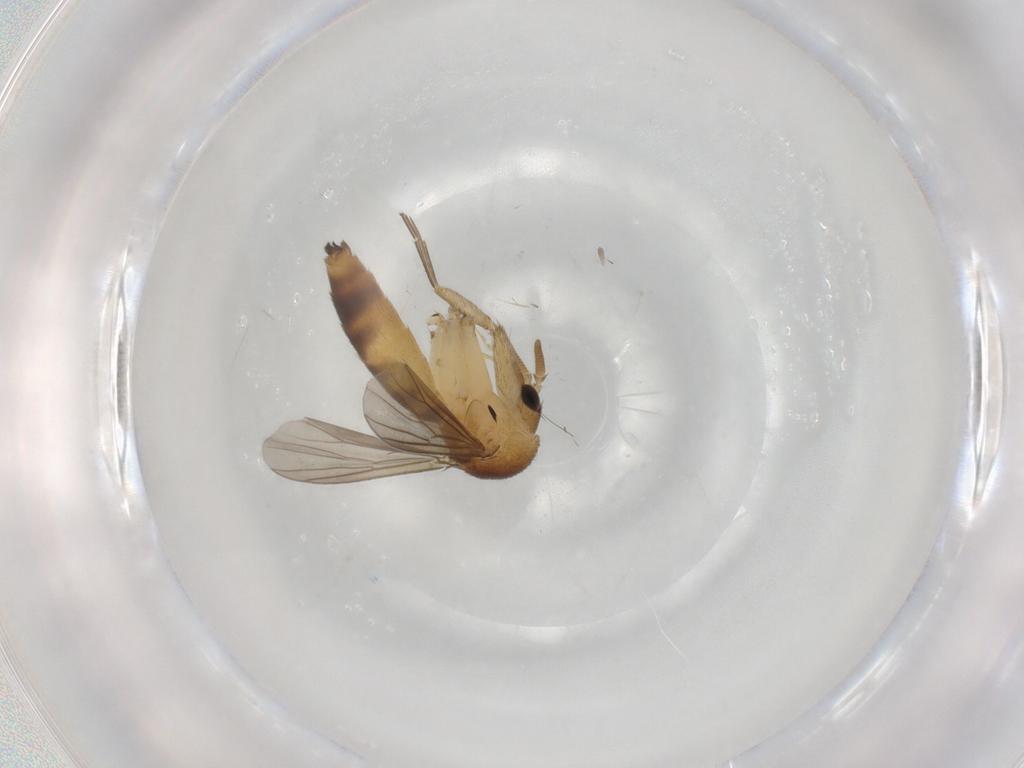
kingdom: Animalia
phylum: Arthropoda
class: Insecta
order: Diptera
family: Mycetophilidae
